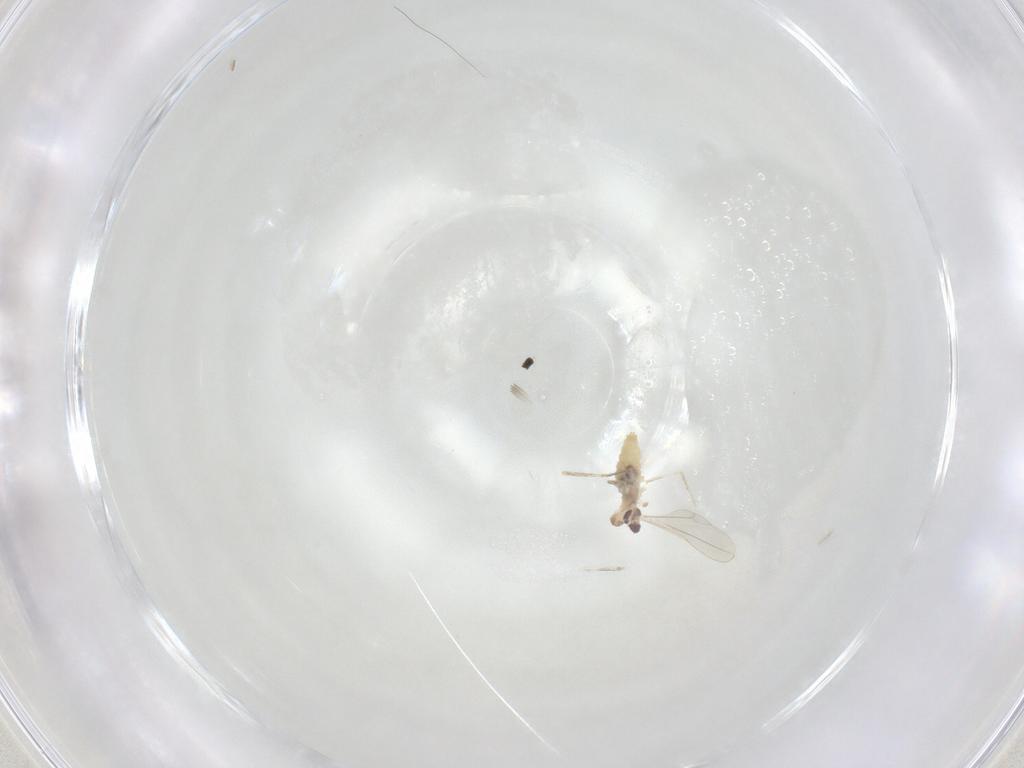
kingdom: Animalia
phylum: Arthropoda
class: Insecta
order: Diptera
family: Cecidomyiidae
